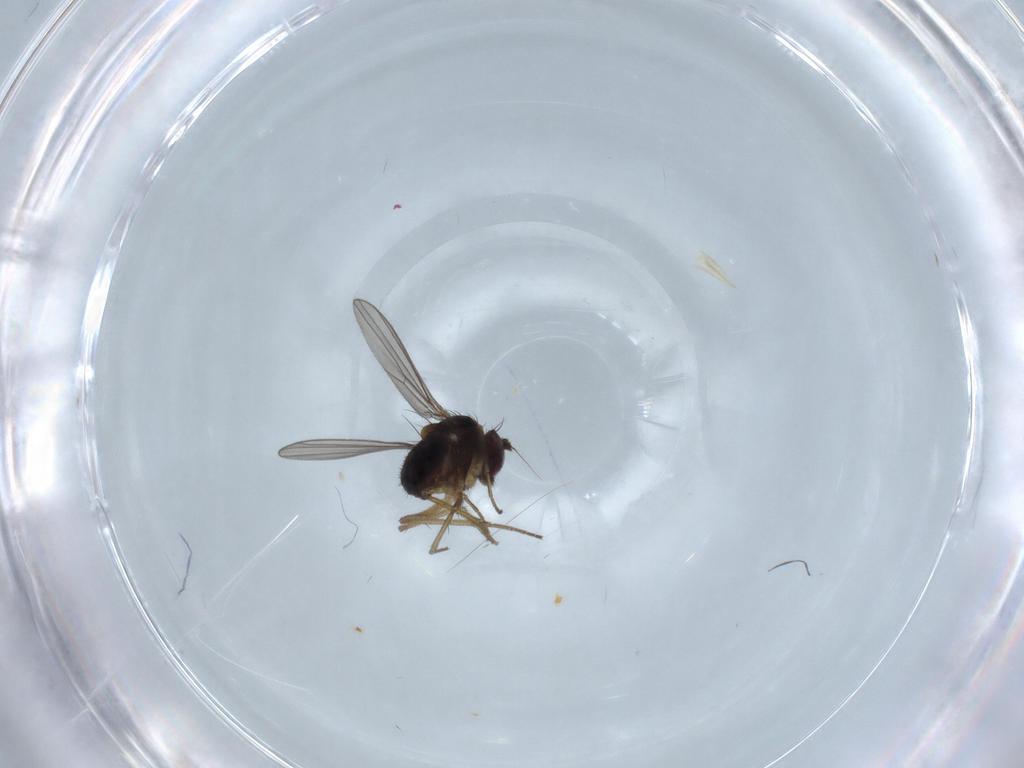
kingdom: Animalia
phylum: Arthropoda
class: Insecta
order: Diptera
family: Dolichopodidae
